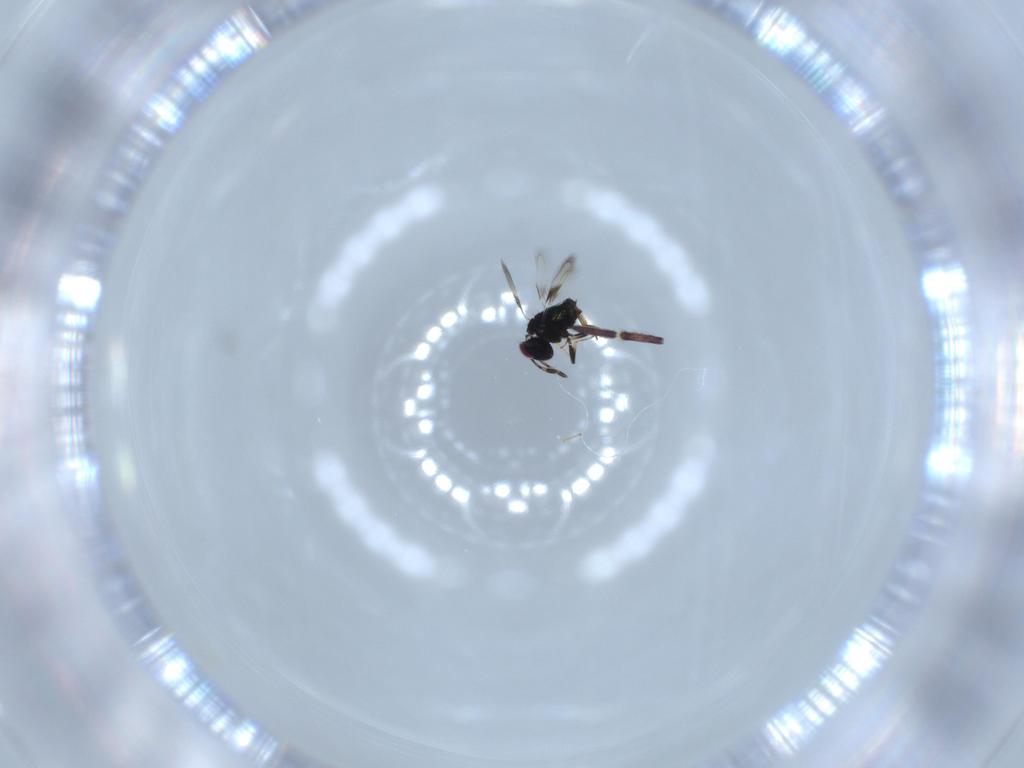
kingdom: Animalia
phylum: Arthropoda
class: Insecta
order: Hymenoptera
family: Azotidae
